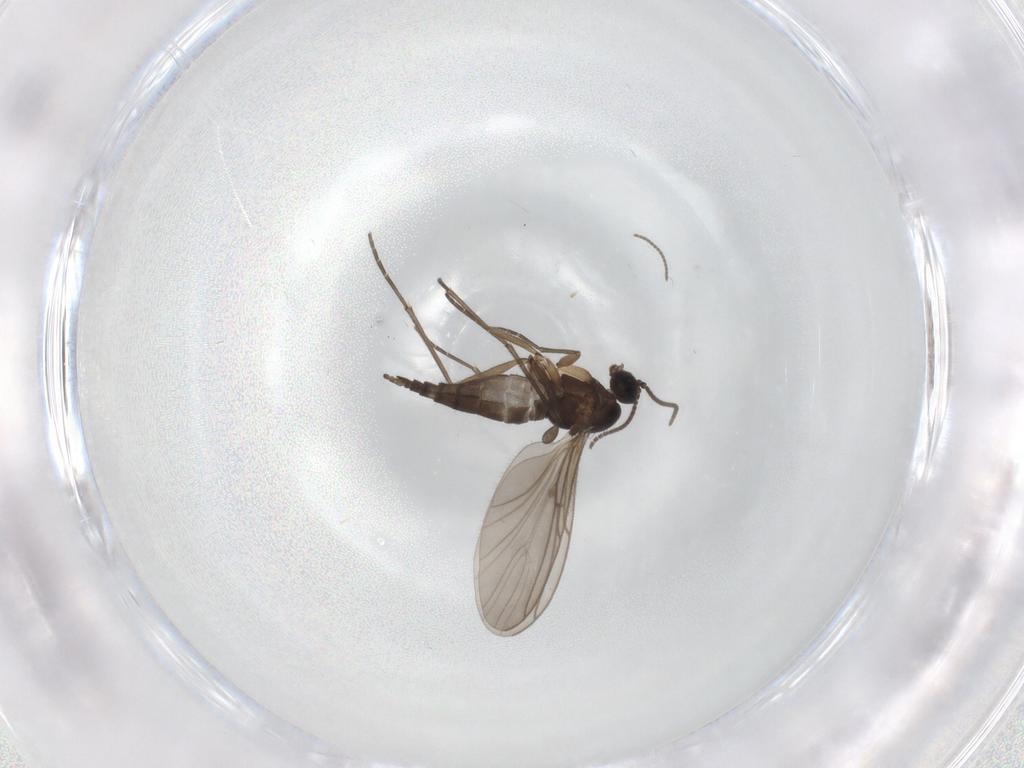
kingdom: Animalia
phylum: Arthropoda
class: Insecta
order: Diptera
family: Sciaridae
